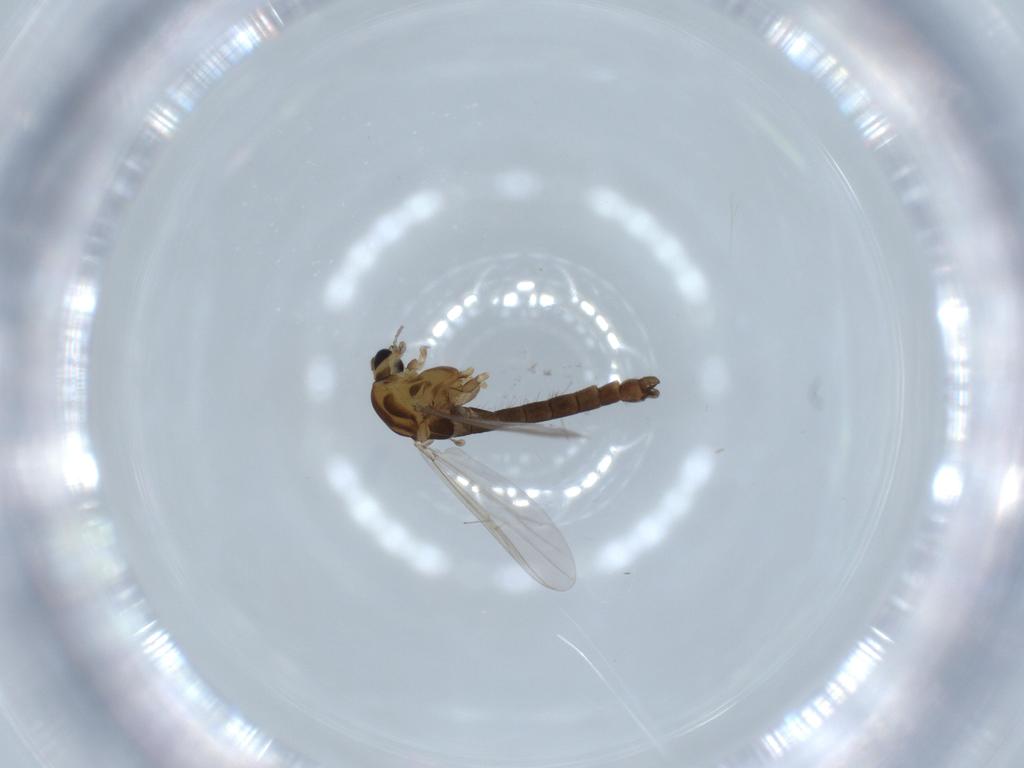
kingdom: Animalia
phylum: Arthropoda
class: Insecta
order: Diptera
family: Chironomidae
